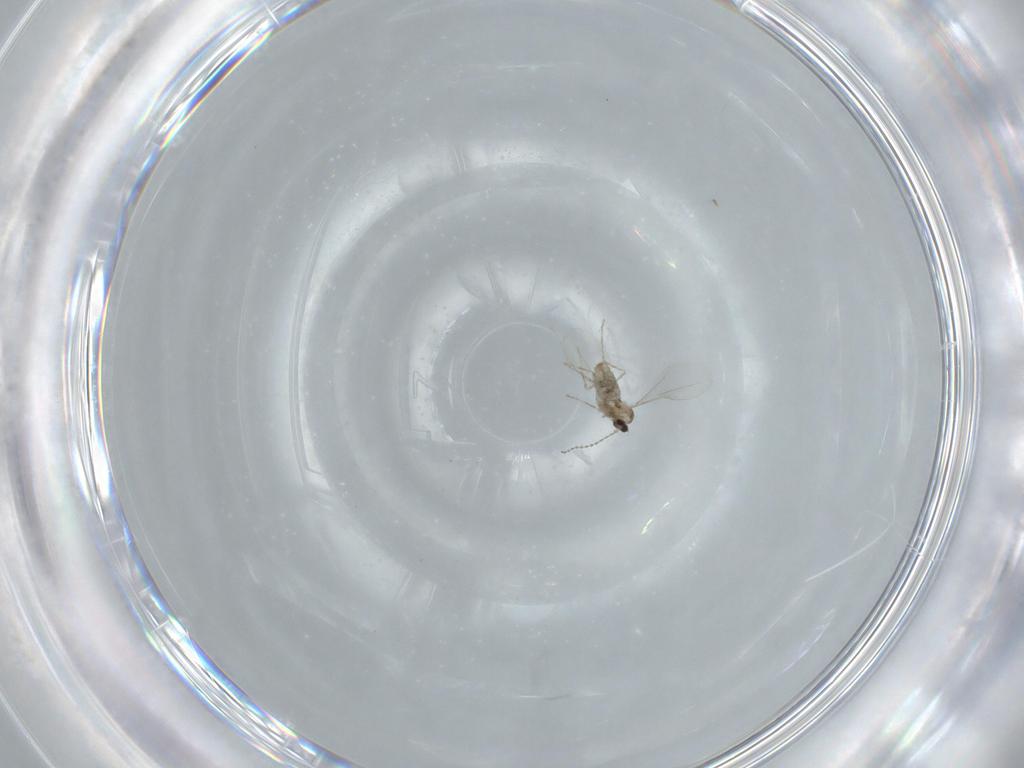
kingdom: Animalia
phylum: Arthropoda
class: Insecta
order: Diptera
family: Cecidomyiidae
